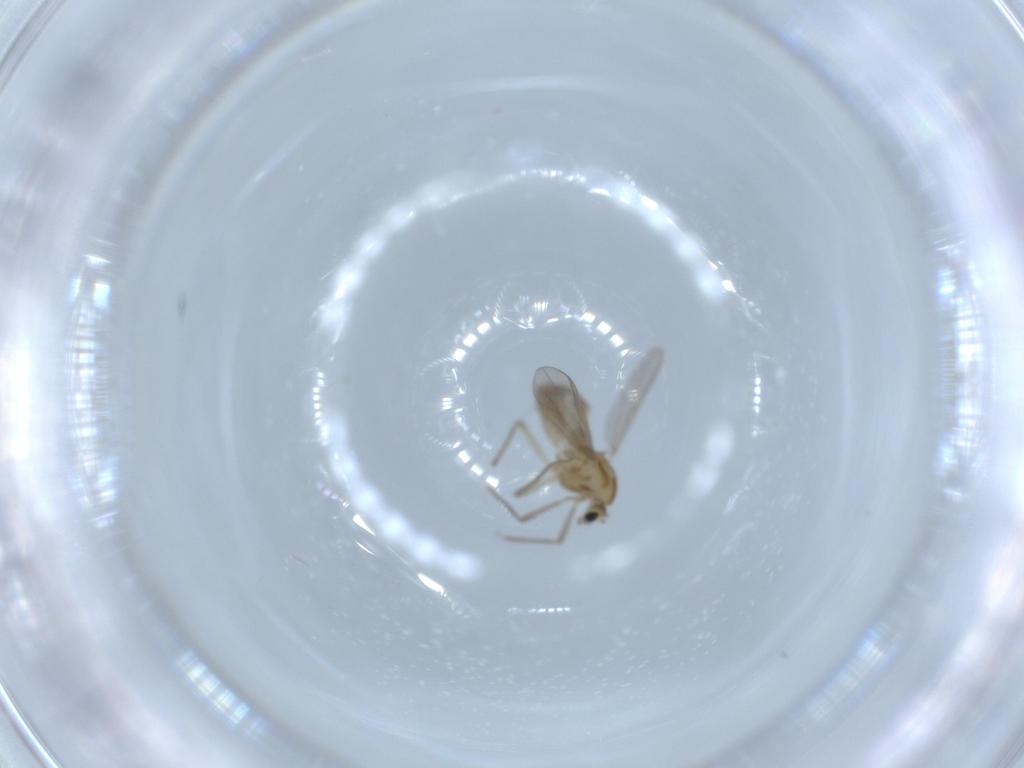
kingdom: Animalia
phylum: Arthropoda
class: Insecta
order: Diptera
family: Chironomidae
